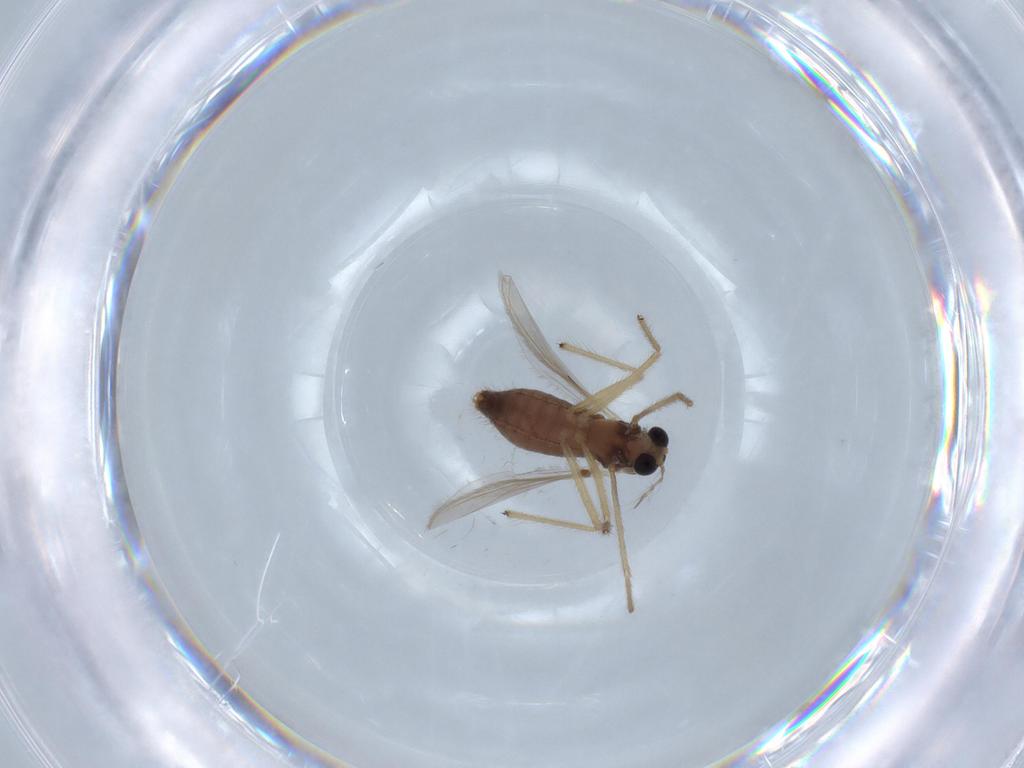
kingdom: Animalia
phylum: Arthropoda
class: Insecta
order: Diptera
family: Chironomidae
